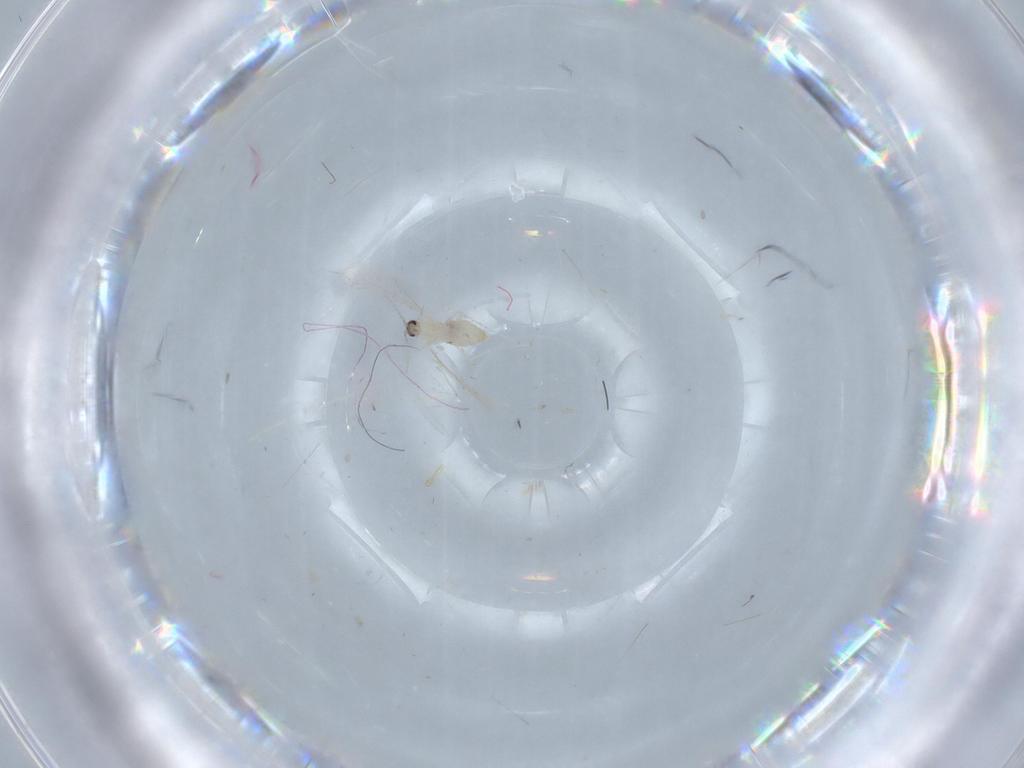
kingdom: Animalia
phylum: Arthropoda
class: Insecta
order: Diptera
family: Cecidomyiidae
